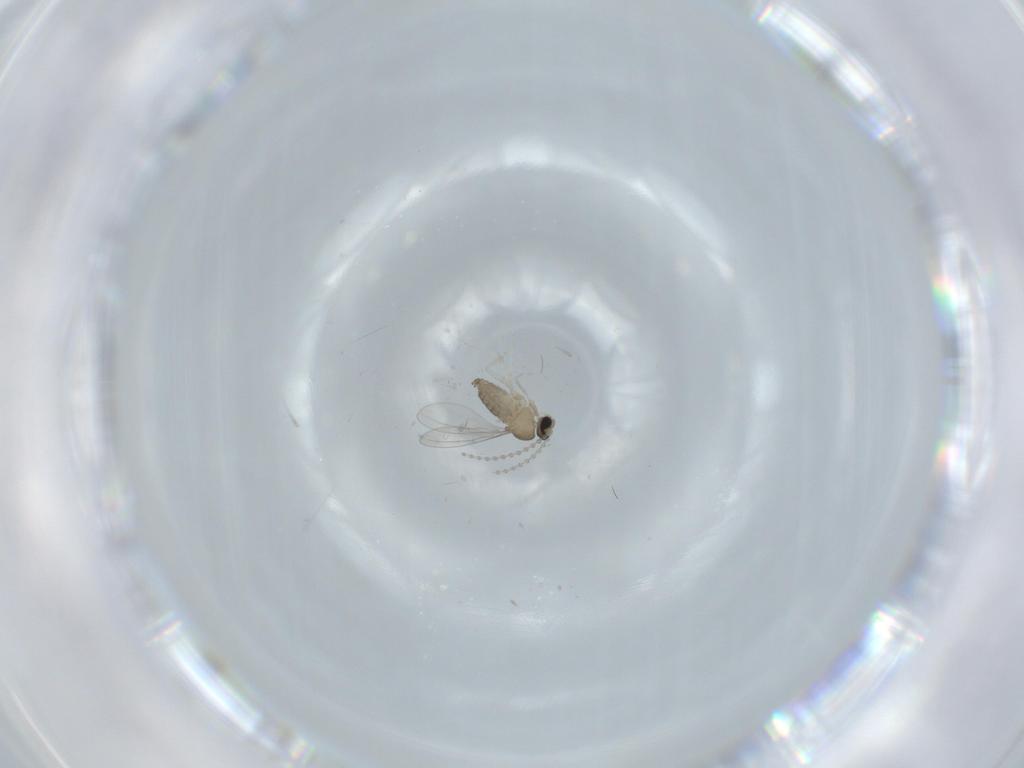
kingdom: Animalia
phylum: Arthropoda
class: Insecta
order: Diptera
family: Cecidomyiidae
